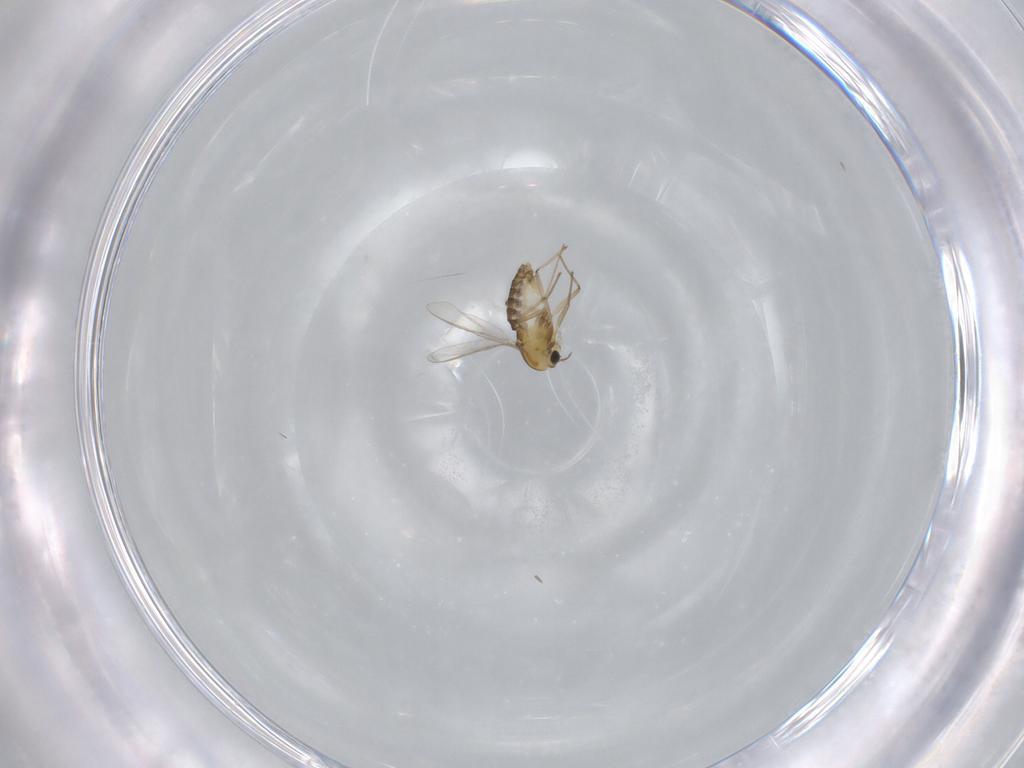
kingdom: Animalia
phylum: Arthropoda
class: Insecta
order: Diptera
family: Chironomidae
